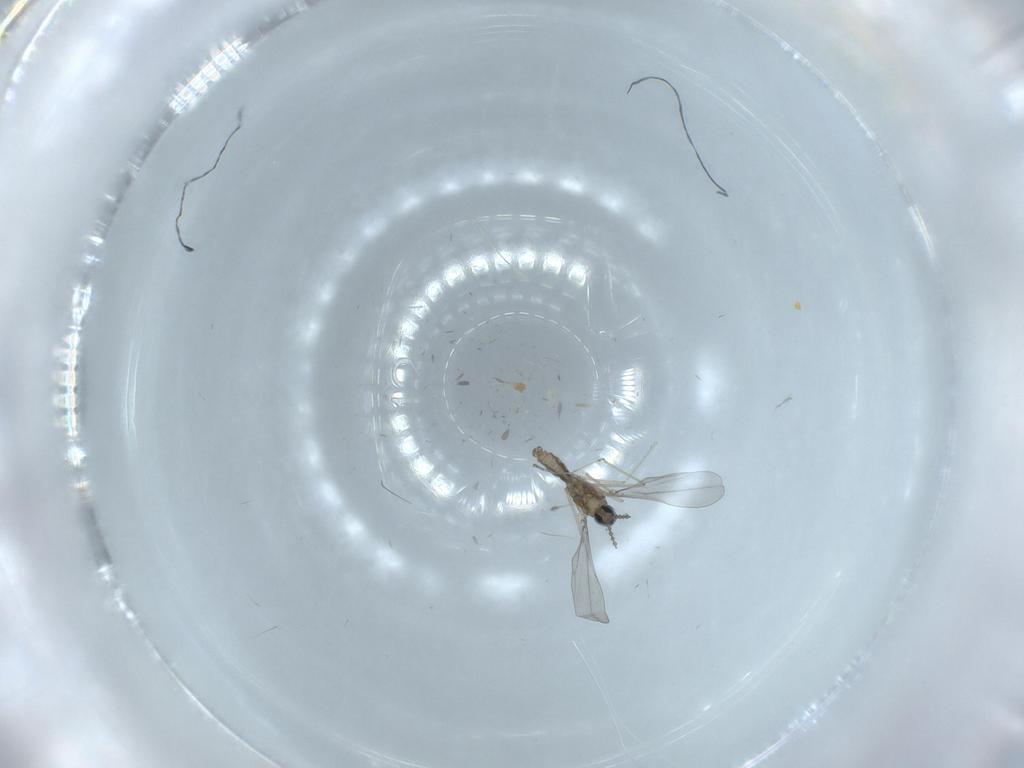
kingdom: Animalia
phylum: Arthropoda
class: Insecta
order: Diptera
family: Cecidomyiidae
